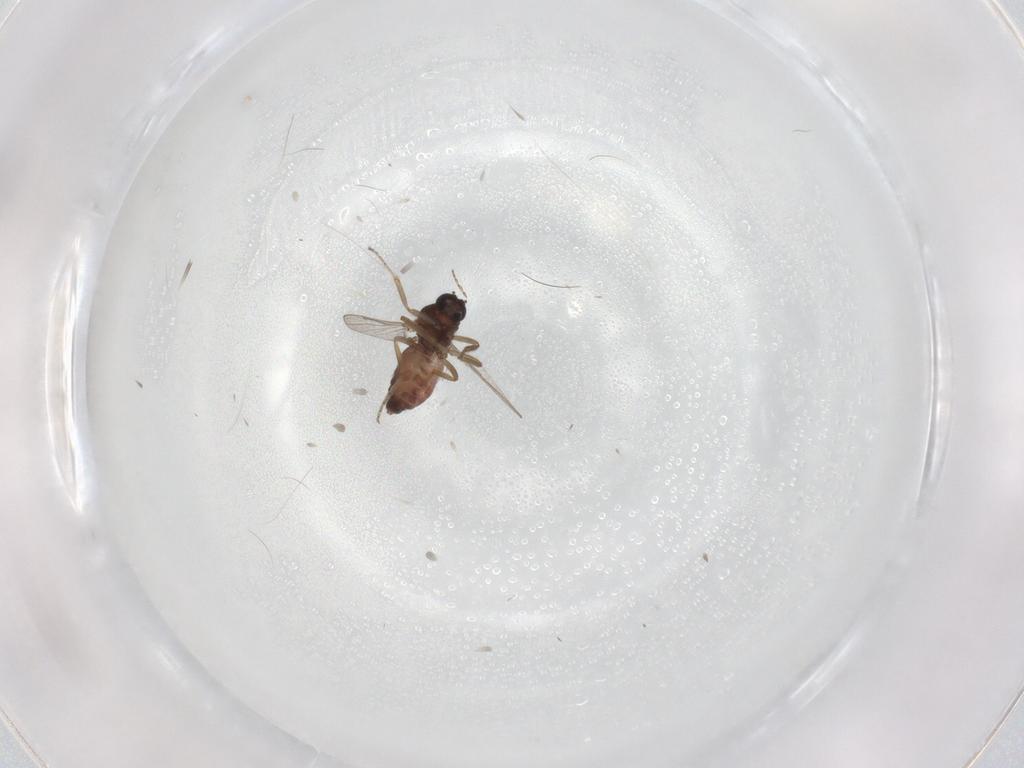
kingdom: Animalia
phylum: Arthropoda
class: Insecta
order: Diptera
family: Ceratopogonidae
